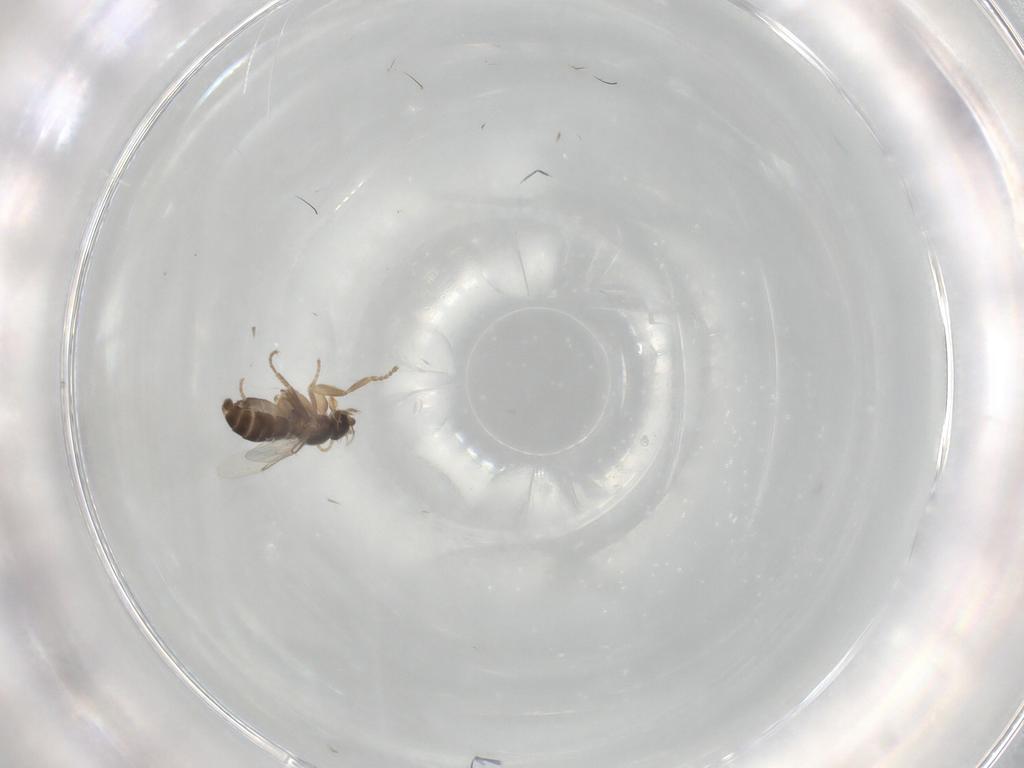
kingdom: Animalia
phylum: Arthropoda
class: Insecta
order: Diptera
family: Phoridae
